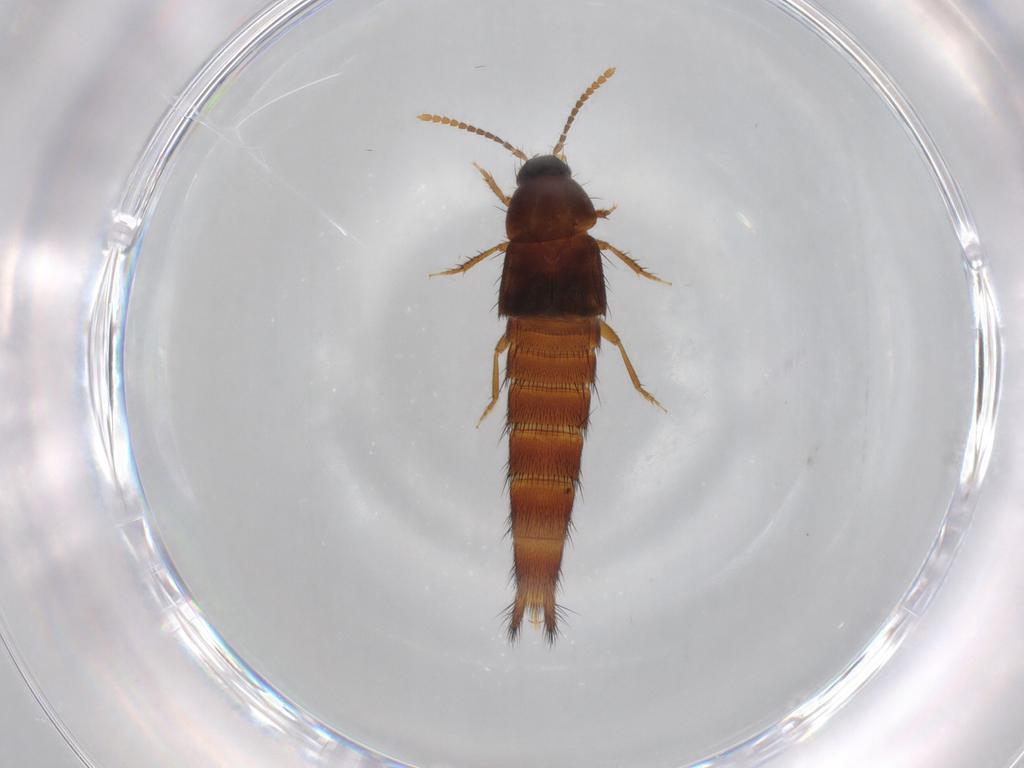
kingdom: Animalia
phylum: Arthropoda
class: Insecta
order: Coleoptera
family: Staphylinidae
